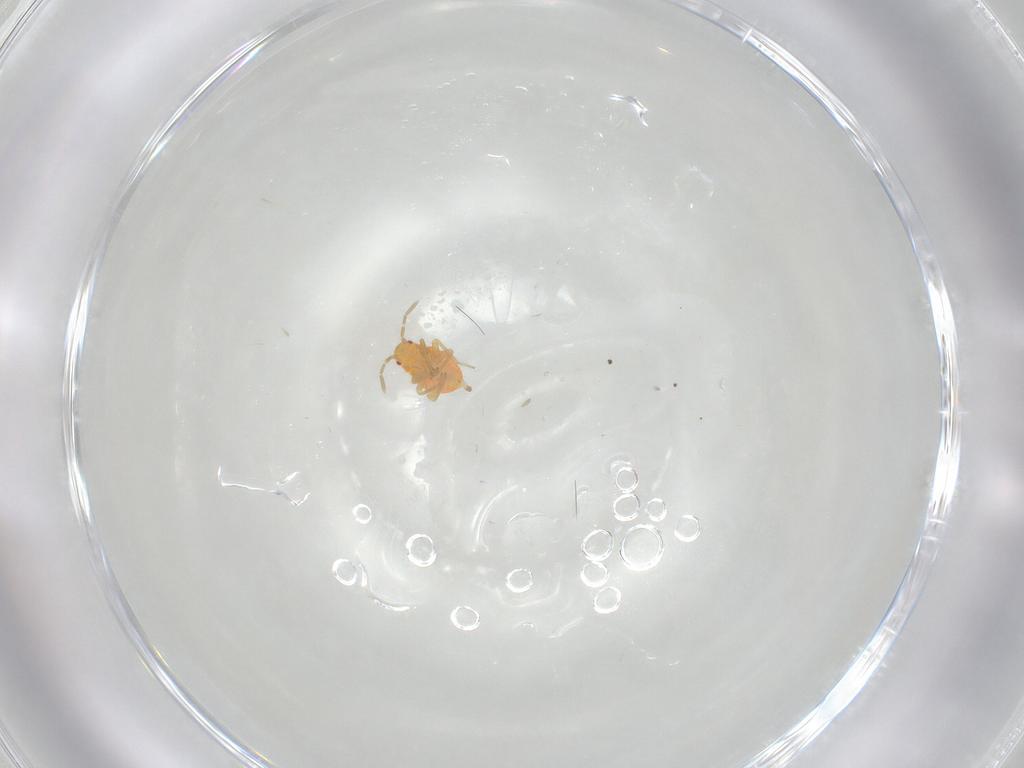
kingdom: Animalia
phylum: Arthropoda
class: Insecta
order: Hemiptera
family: Miridae
